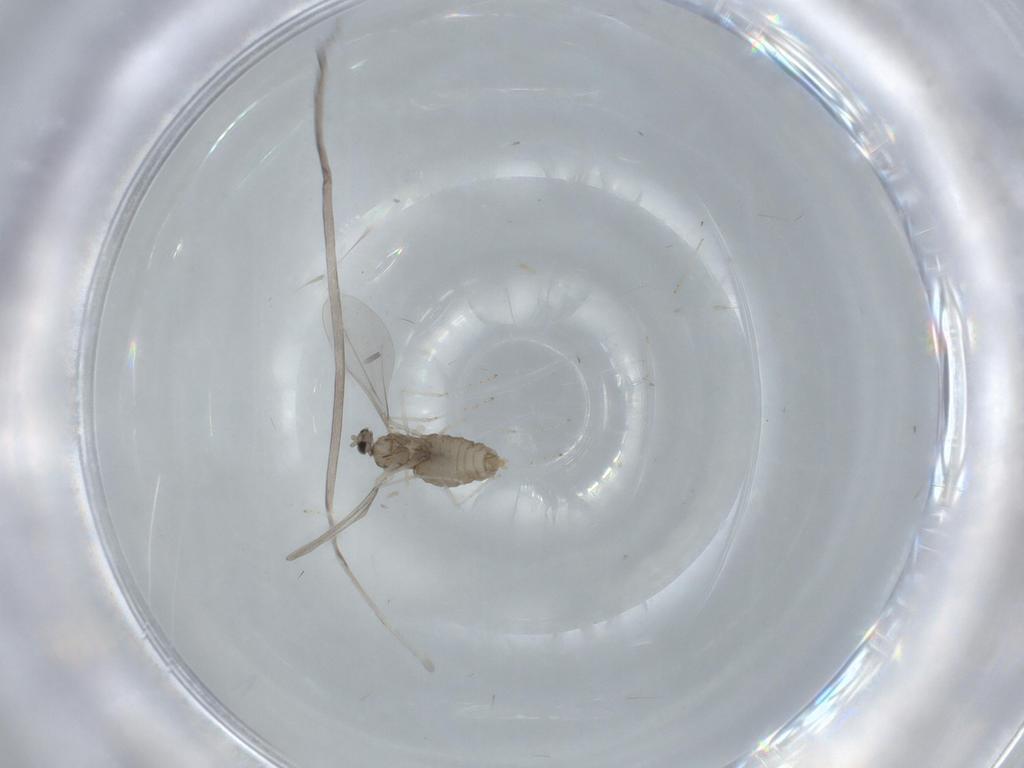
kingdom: Animalia
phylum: Arthropoda
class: Insecta
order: Diptera
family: Cecidomyiidae
